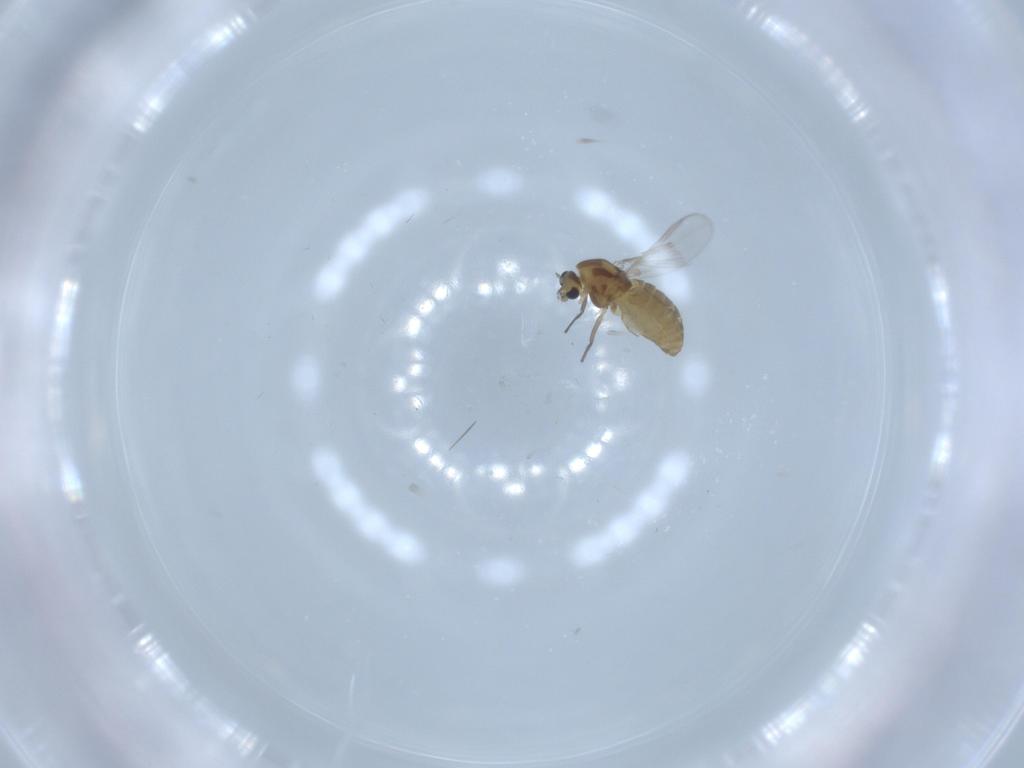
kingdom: Animalia
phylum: Arthropoda
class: Insecta
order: Diptera
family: Chironomidae
